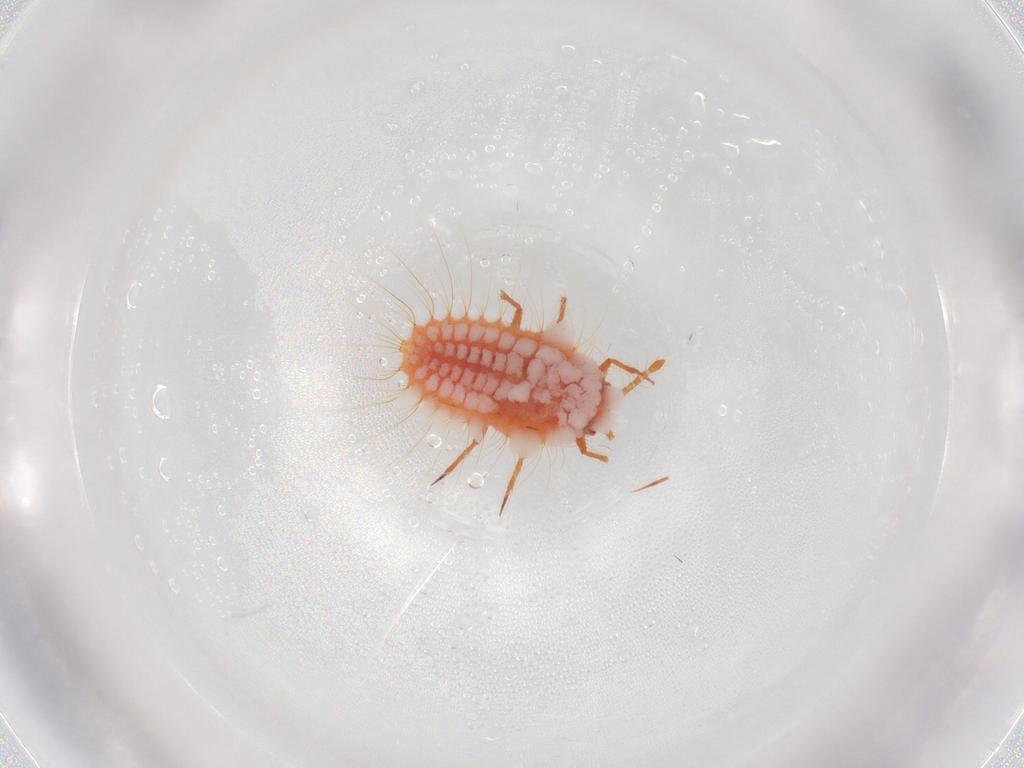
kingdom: Animalia
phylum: Arthropoda
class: Insecta
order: Hemiptera
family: Coccoidea_incertae_sedis
